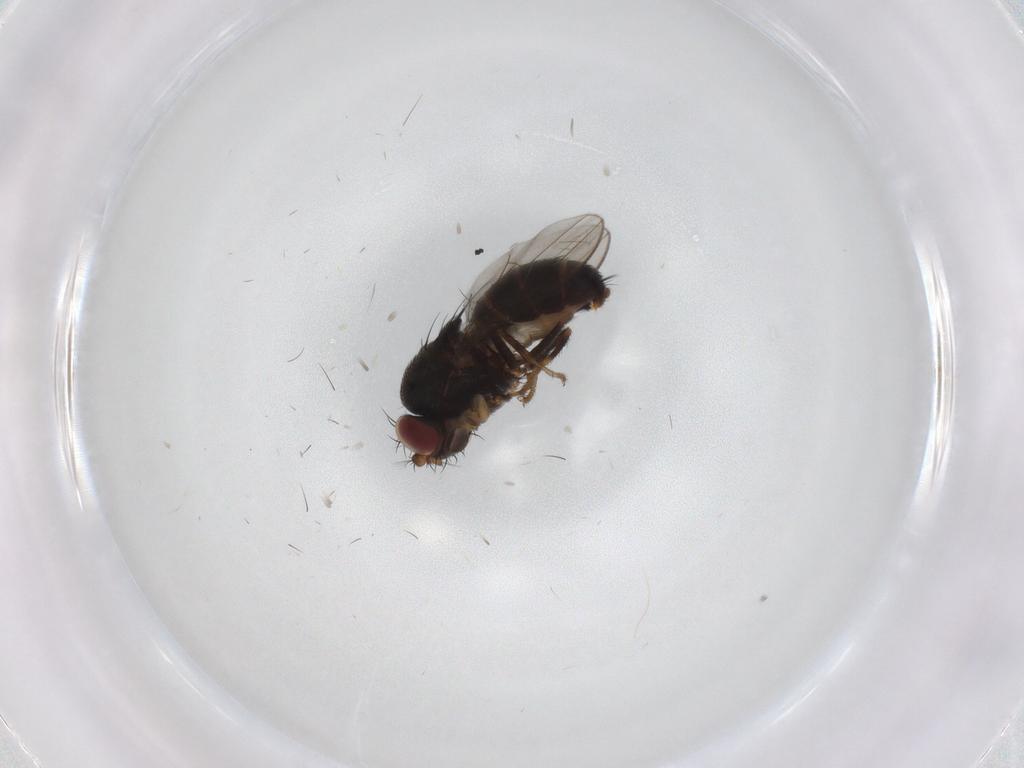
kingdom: Animalia
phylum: Arthropoda
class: Insecta
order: Diptera
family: Ephydridae
